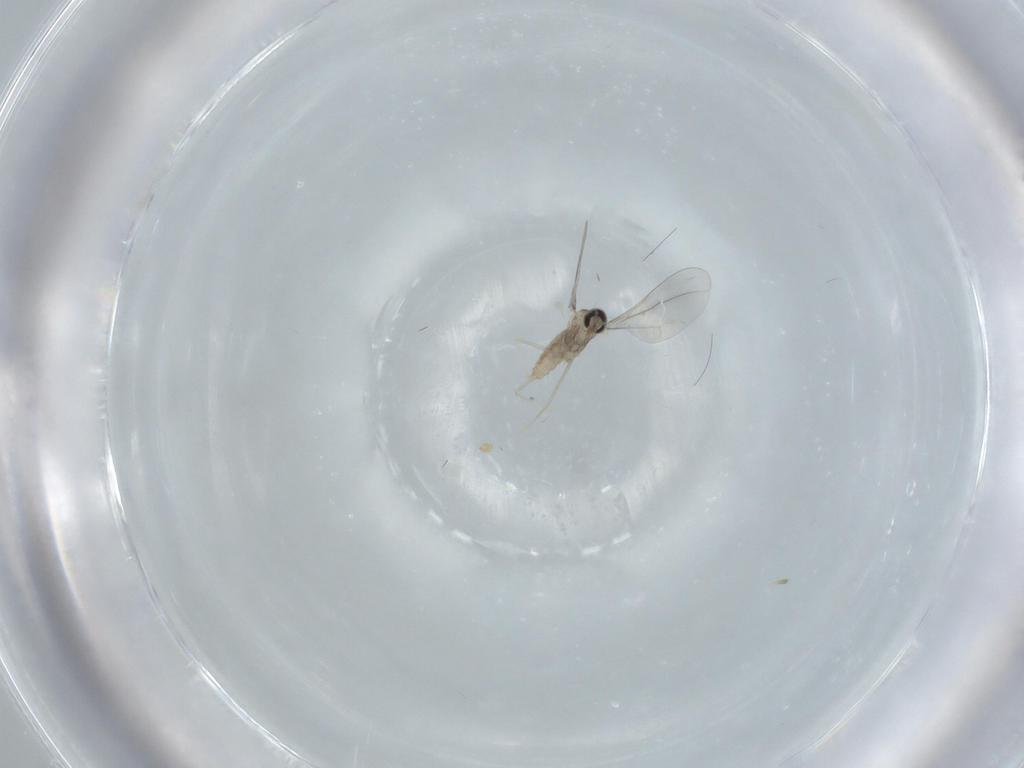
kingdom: Animalia
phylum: Arthropoda
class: Insecta
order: Diptera
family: Cecidomyiidae
